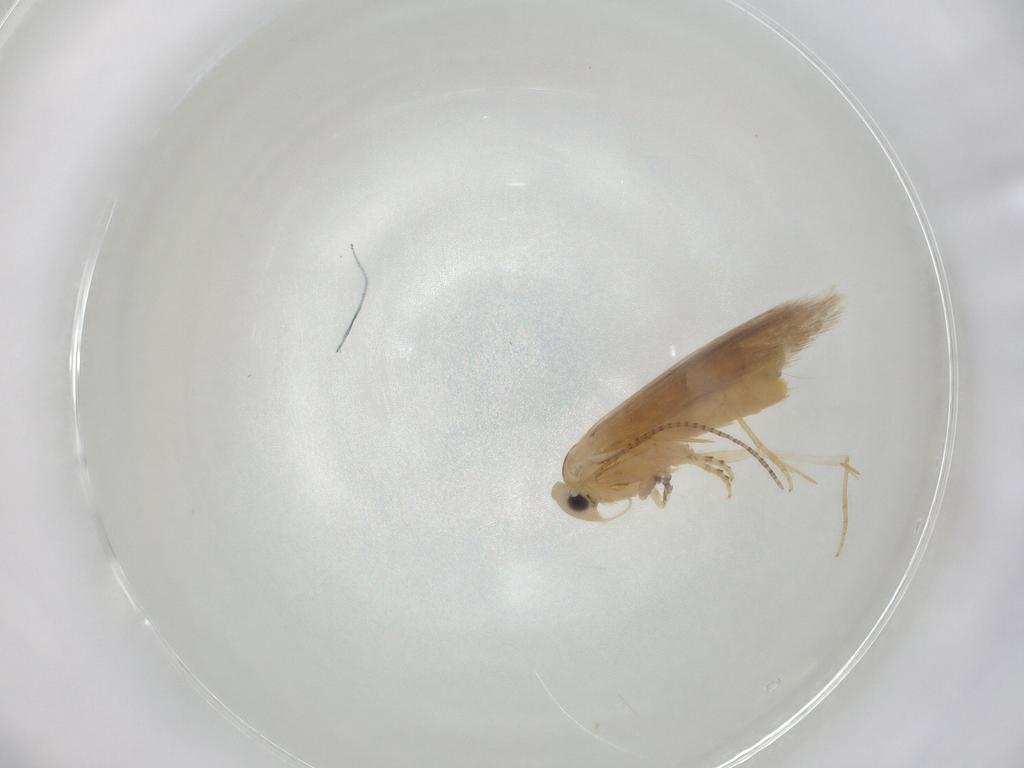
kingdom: Animalia
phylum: Arthropoda
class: Insecta
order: Lepidoptera
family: Bucculatricidae
